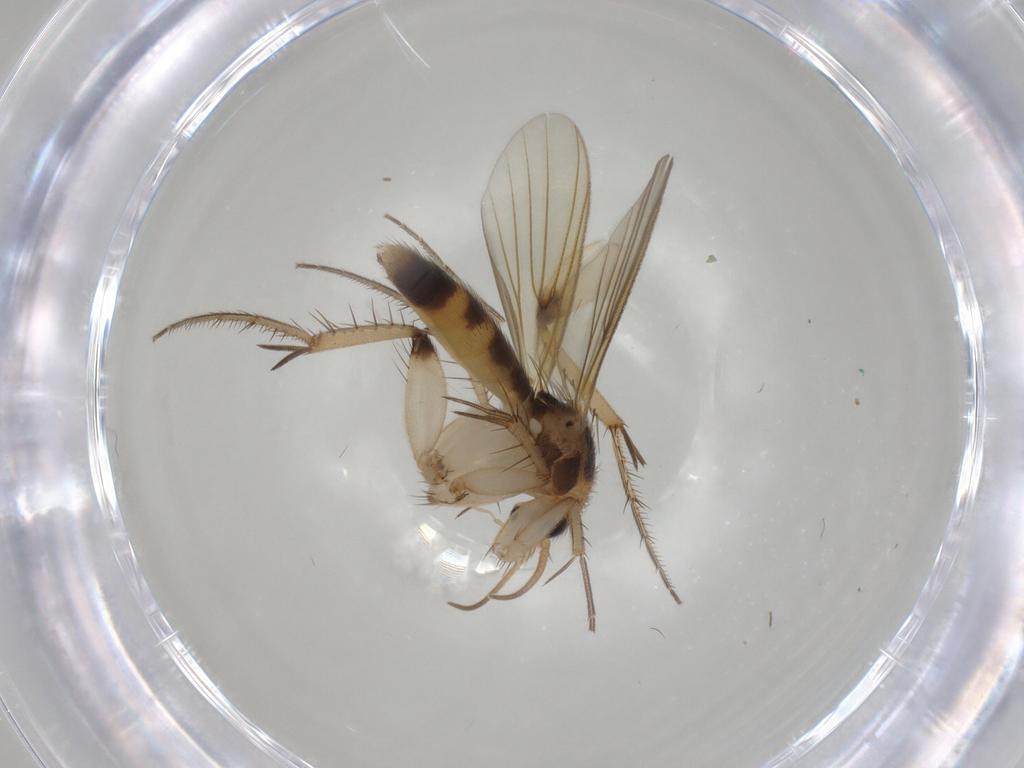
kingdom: Animalia
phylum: Arthropoda
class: Insecta
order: Diptera
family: Mycetophilidae
